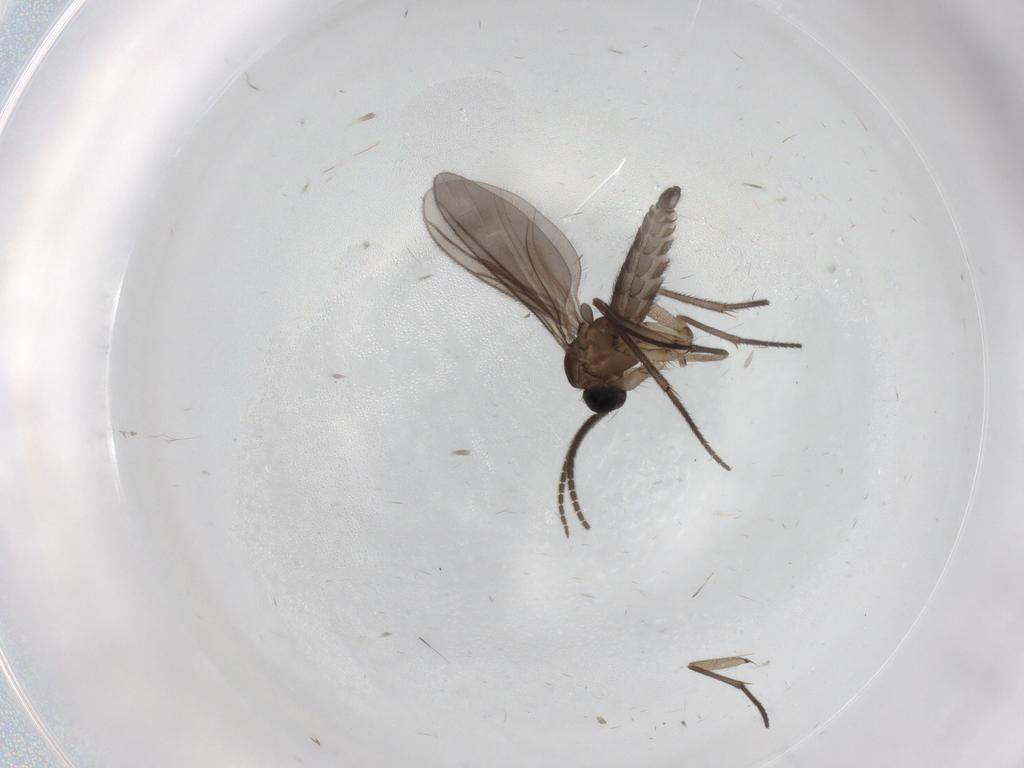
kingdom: Animalia
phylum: Arthropoda
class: Insecta
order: Diptera
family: Sciaridae
